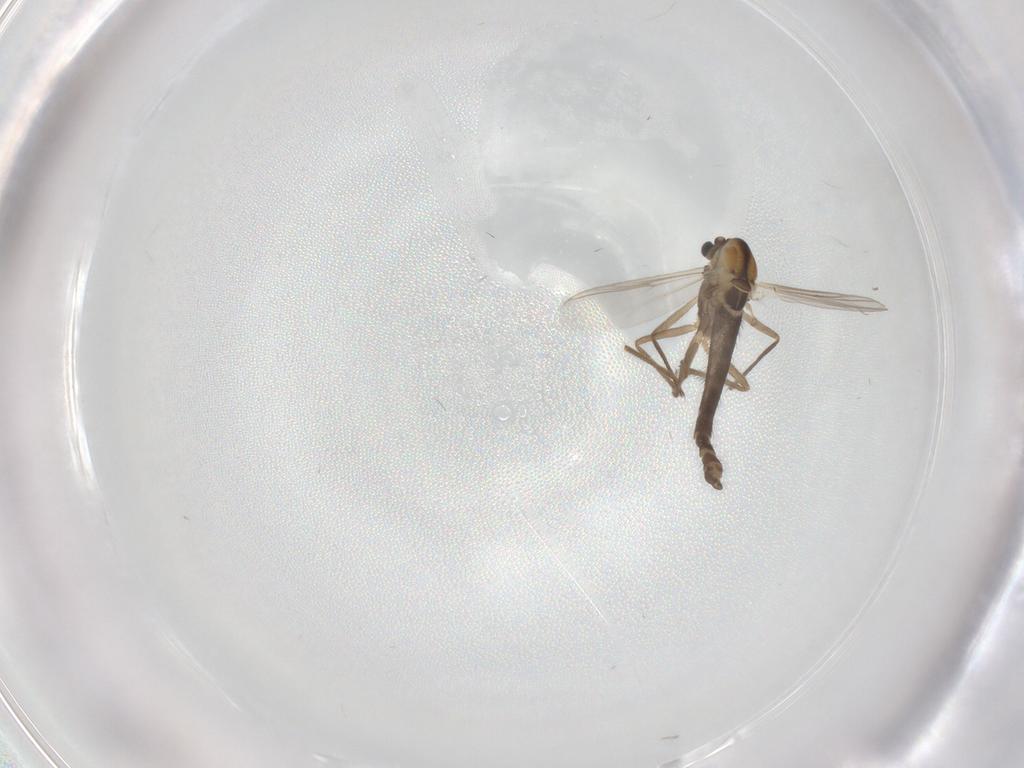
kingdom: Animalia
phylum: Arthropoda
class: Insecta
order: Diptera
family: Chironomidae
